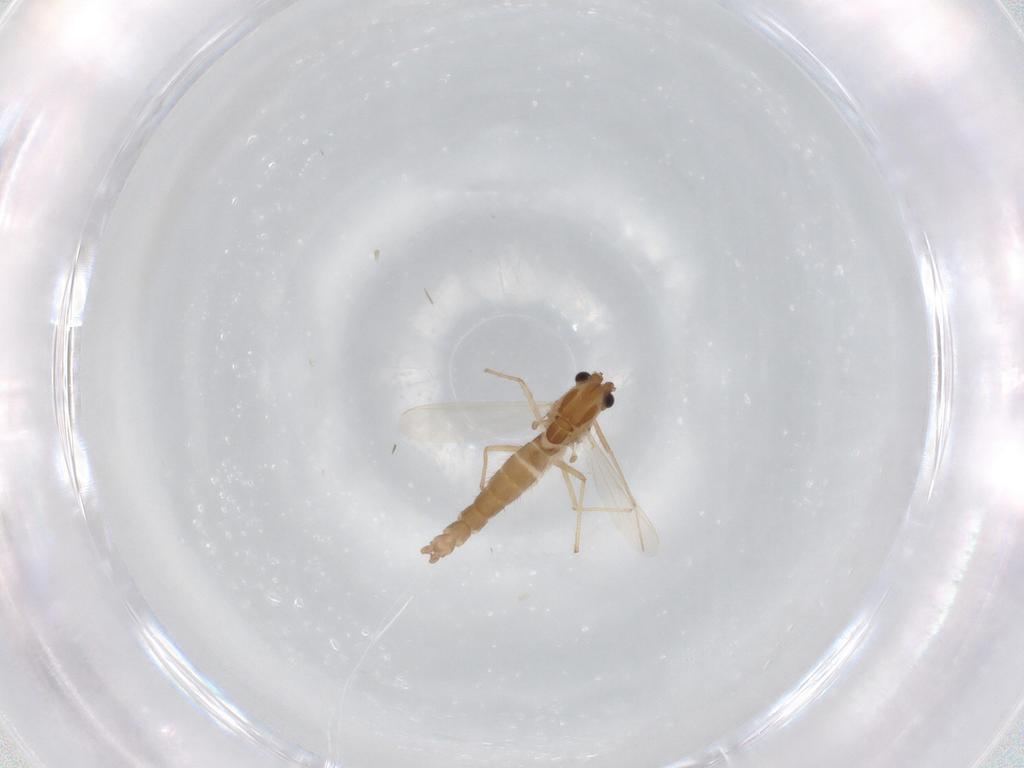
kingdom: Animalia
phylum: Arthropoda
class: Insecta
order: Diptera
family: Chironomidae
